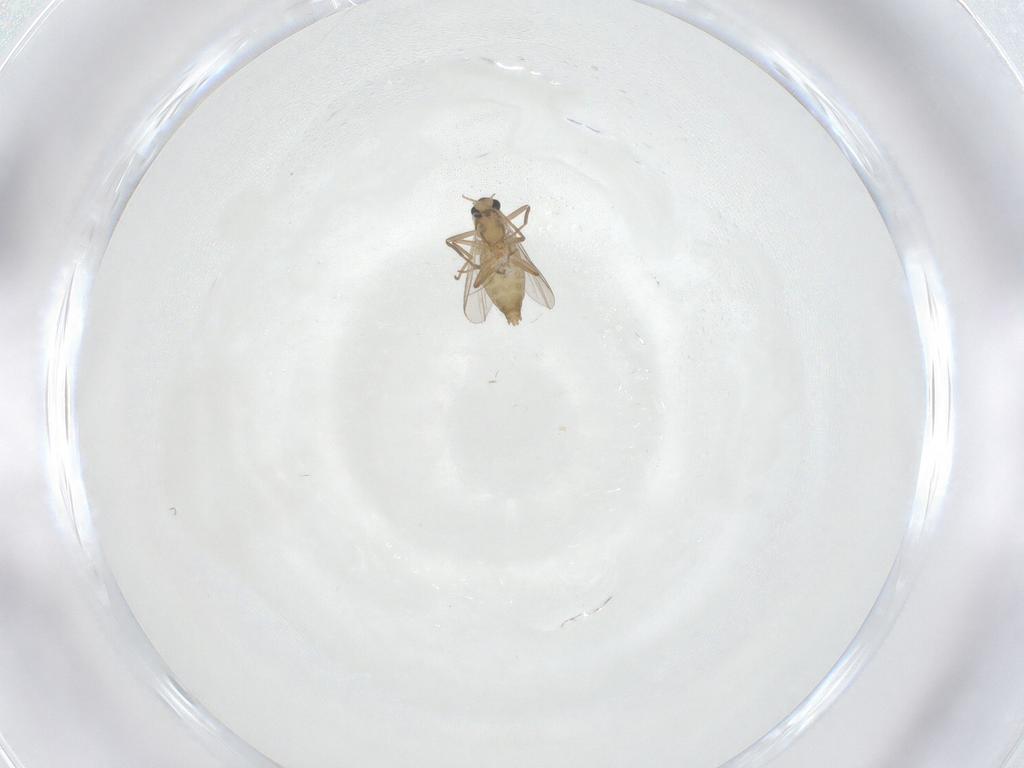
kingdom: Animalia
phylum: Arthropoda
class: Insecta
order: Diptera
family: Chironomidae
